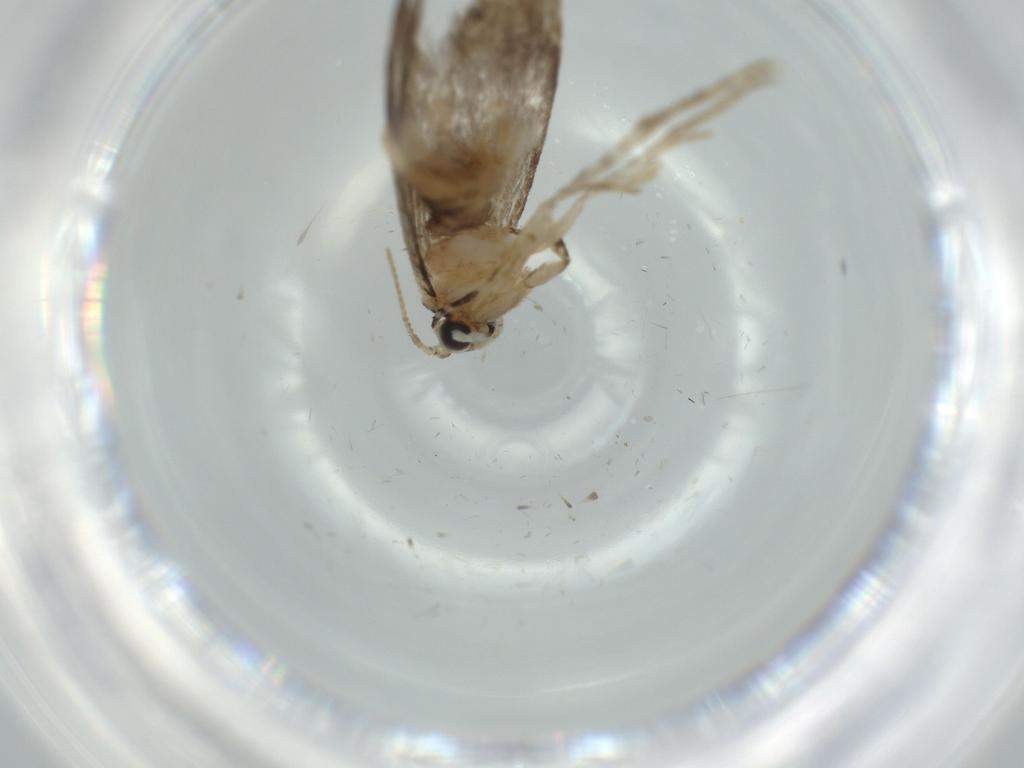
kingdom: Animalia
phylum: Arthropoda
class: Insecta
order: Lepidoptera
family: Tineidae
